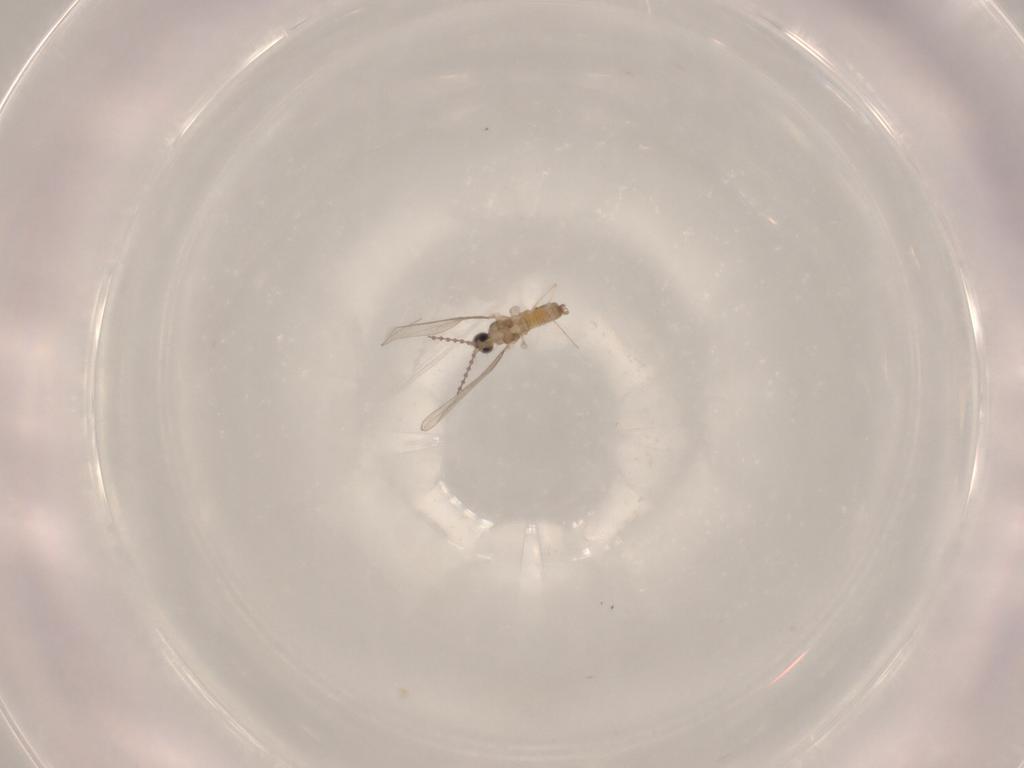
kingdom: Animalia
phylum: Arthropoda
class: Insecta
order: Diptera
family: Cecidomyiidae
